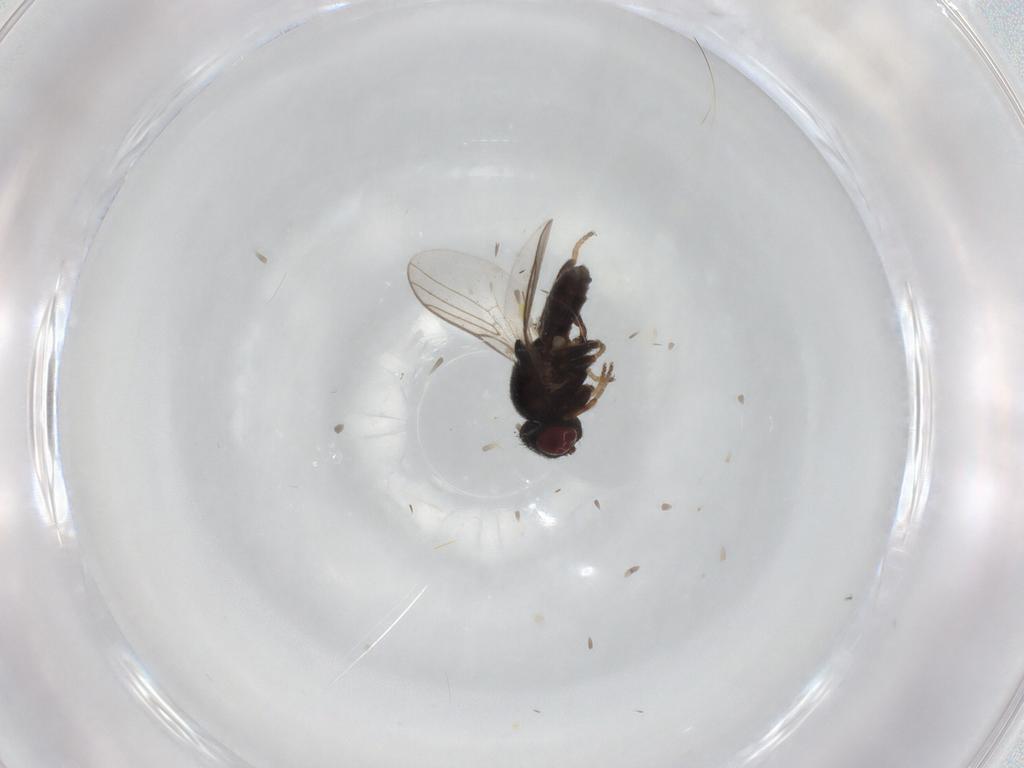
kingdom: Animalia
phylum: Arthropoda
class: Insecta
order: Diptera
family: Chloropidae
